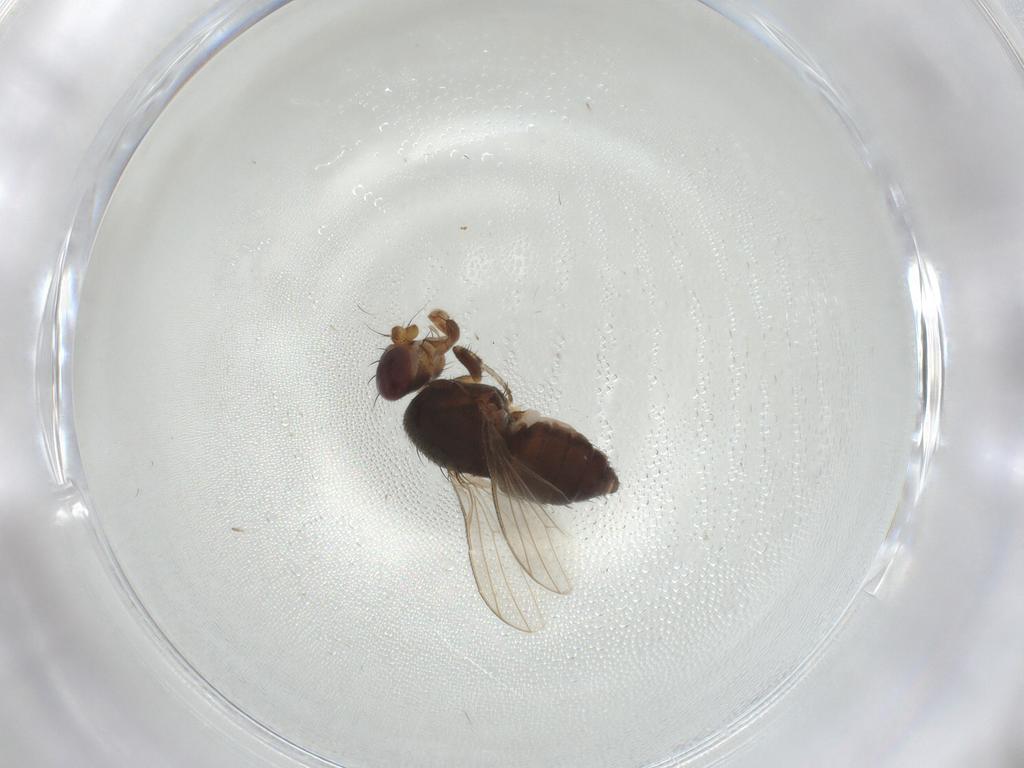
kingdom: Animalia
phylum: Arthropoda
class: Insecta
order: Diptera
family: Heleomyzidae
